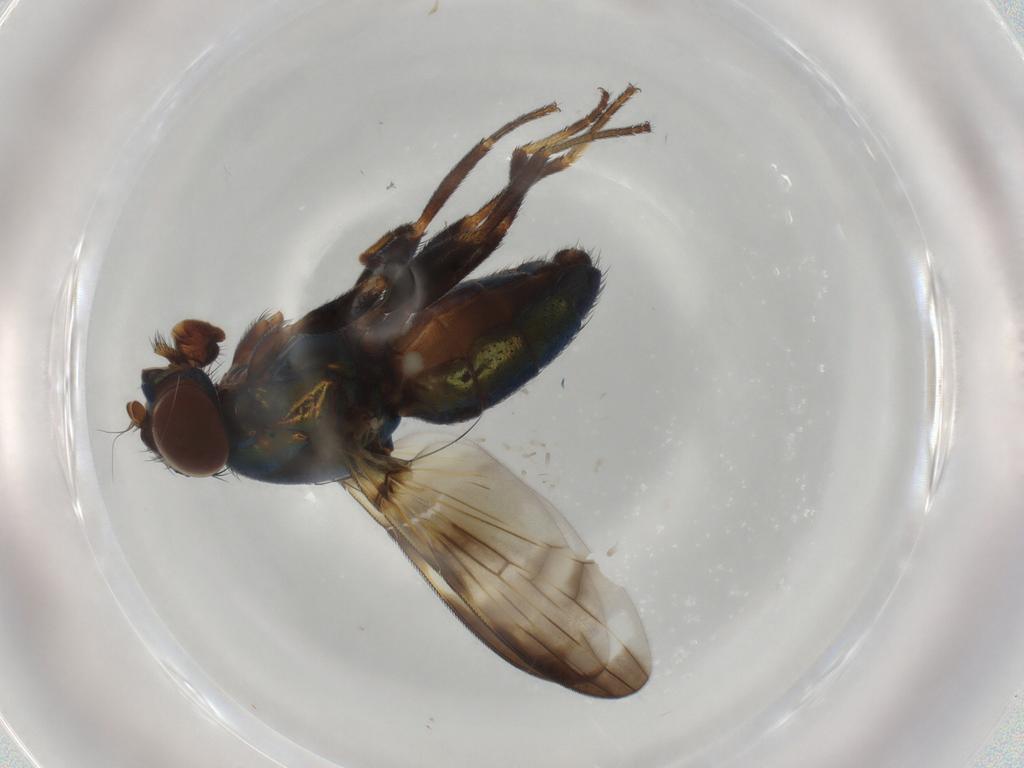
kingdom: Animalia
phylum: Arthropoda
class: Insecta
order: Diptera
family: Ulidiidae
